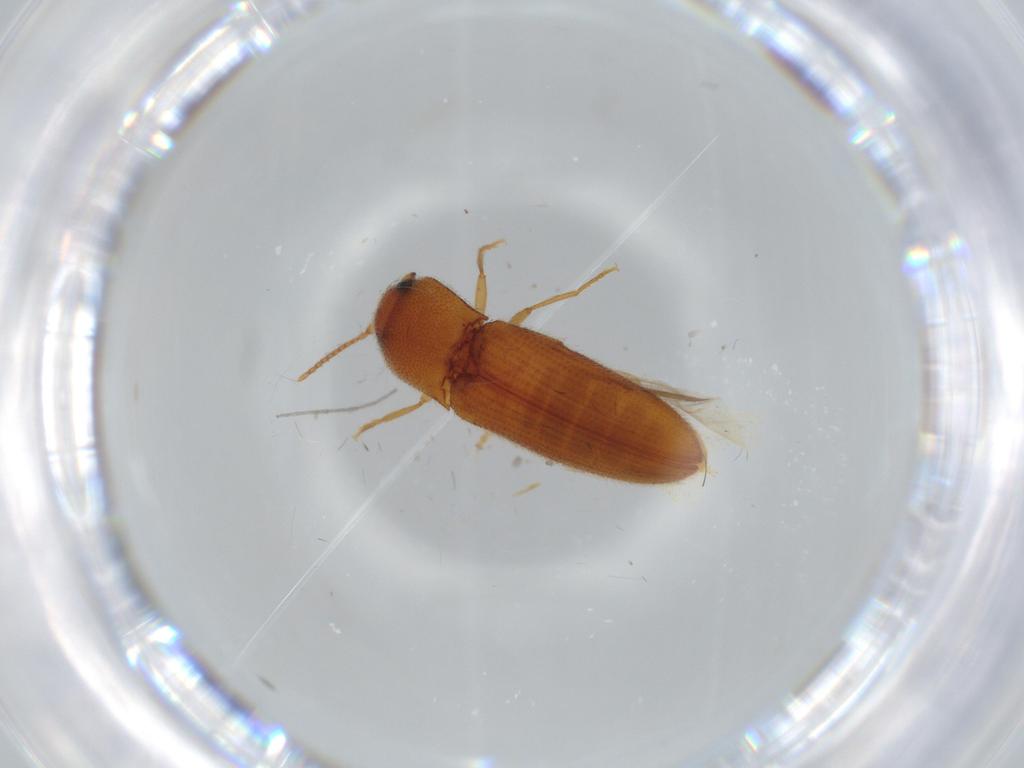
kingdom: Animalia
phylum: Arthropoda
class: Insecta
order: Coleoptera
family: Elateridae
